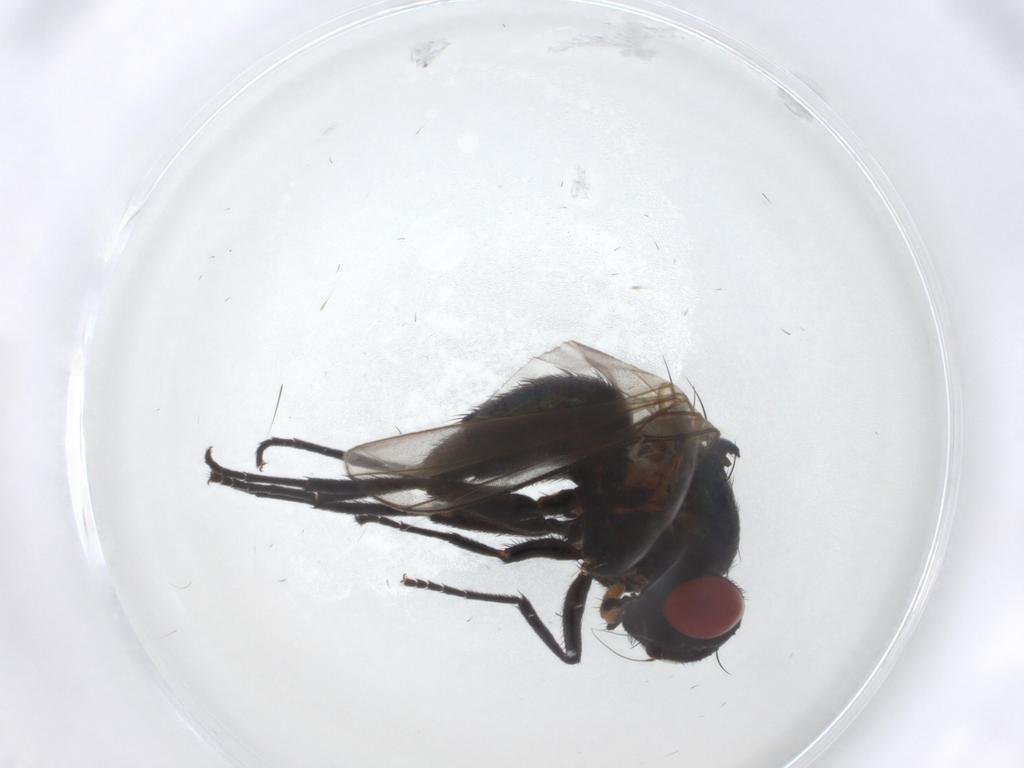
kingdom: Animalia
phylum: Arthropoda
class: Insecta
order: Diptera
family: Agromyzidae
